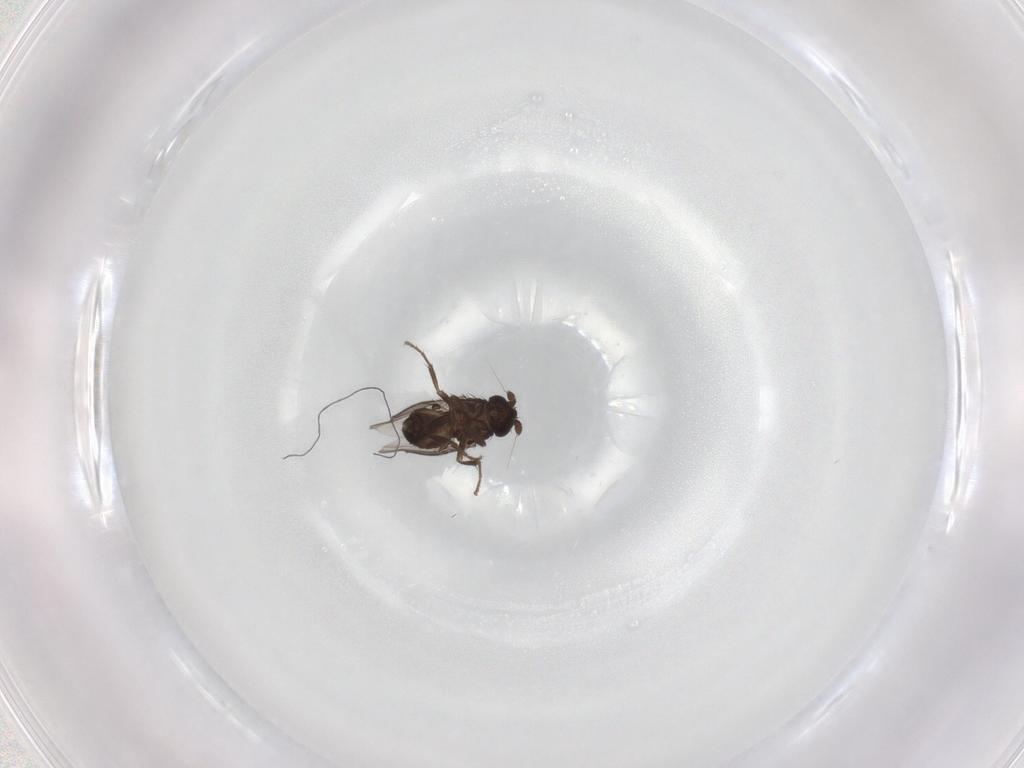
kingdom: Animalia
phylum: Arthropoda
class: Insecta
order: Diptera
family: Sphaeroceridae
